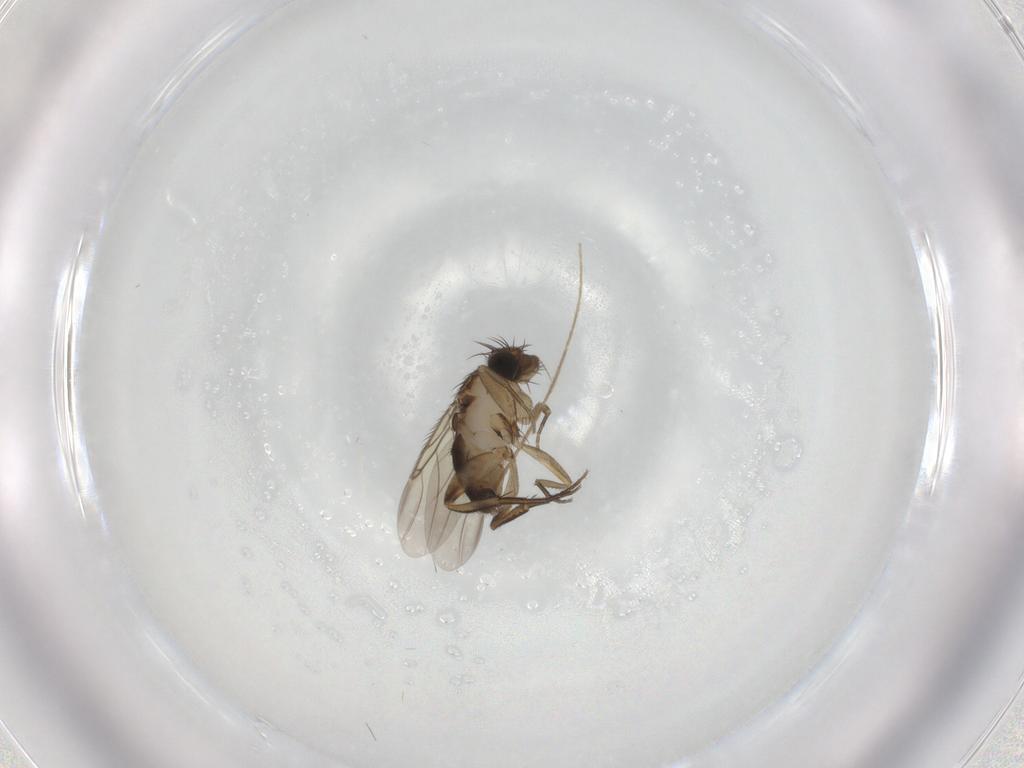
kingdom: Animalia
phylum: Arthropoda
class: Insecta
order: Diptera
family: Phoridae
